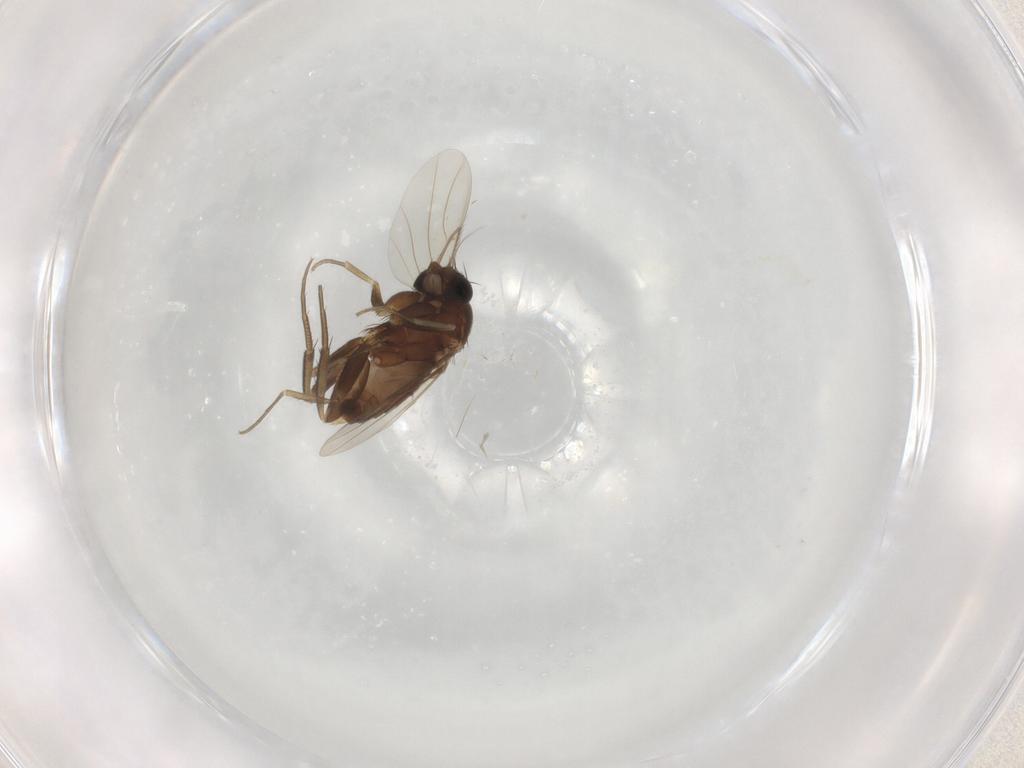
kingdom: Animalia
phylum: Arthropoda
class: Insecta
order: Diptera
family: Phoridae
